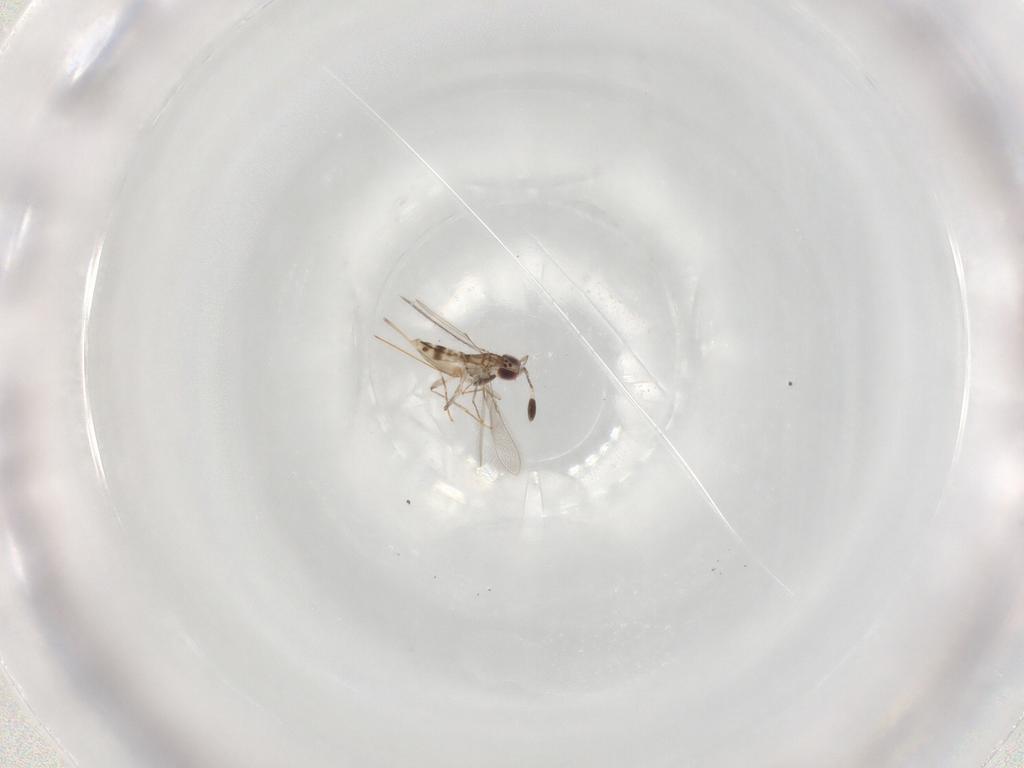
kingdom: Animalia
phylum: Arthropoda
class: Insecta
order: Hymenoptera
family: Mymaridae
